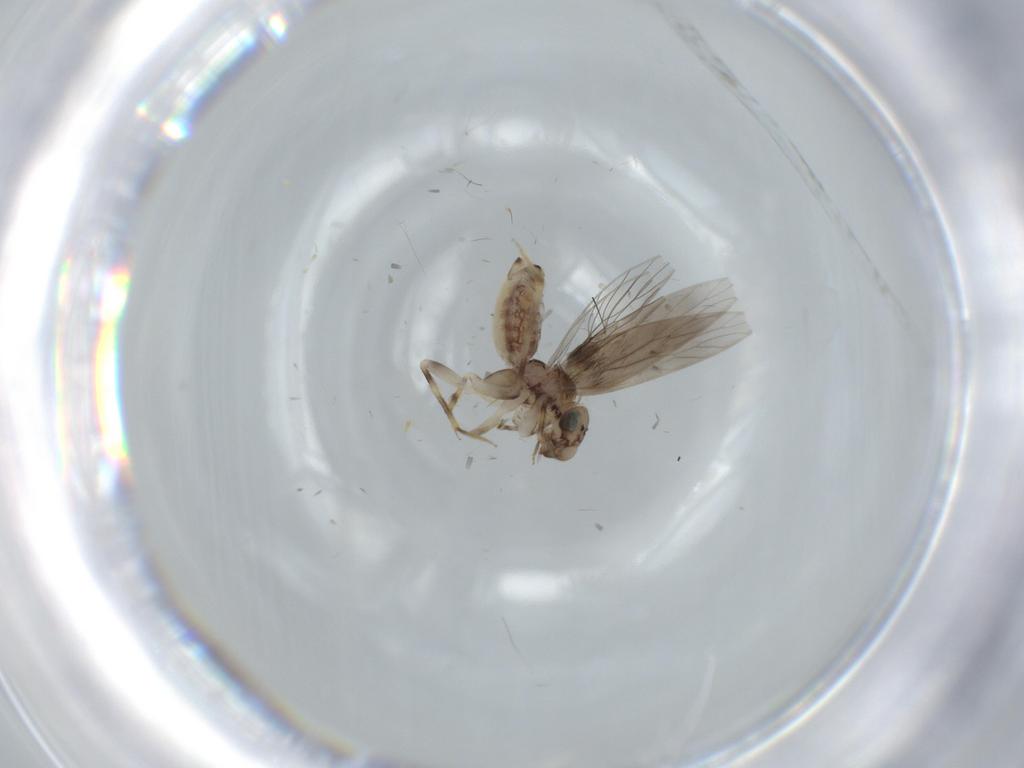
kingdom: Animalia
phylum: Arthropoda
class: Insecta
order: Psocodea
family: Lepidopsocidae
